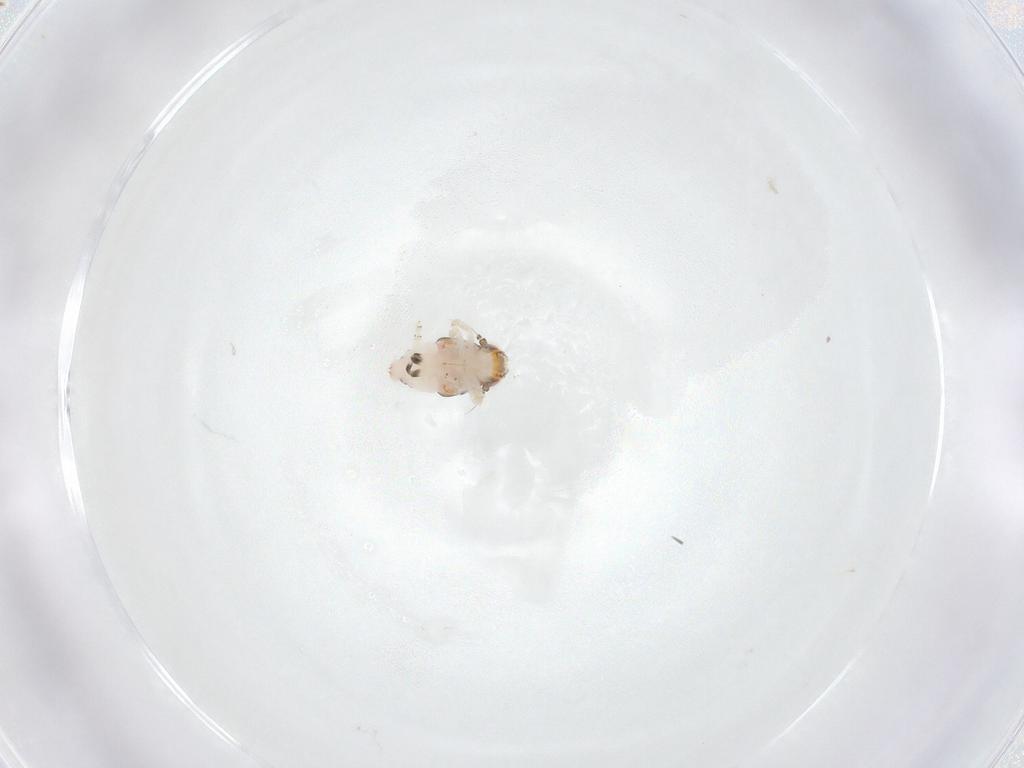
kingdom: Animalia
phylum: Arthropoda
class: Insecta
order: Hemiptera
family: Nogodinidae
